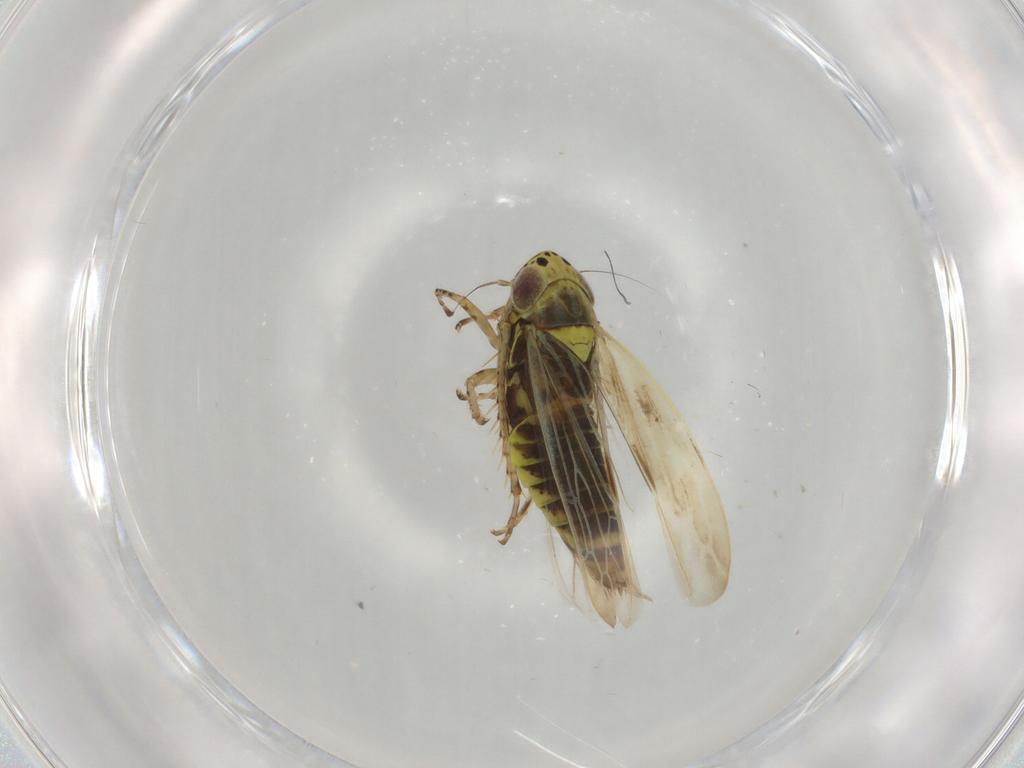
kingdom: Animalia
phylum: Arthropoda
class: Insecta
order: Hemiptera
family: Cicadellidae
